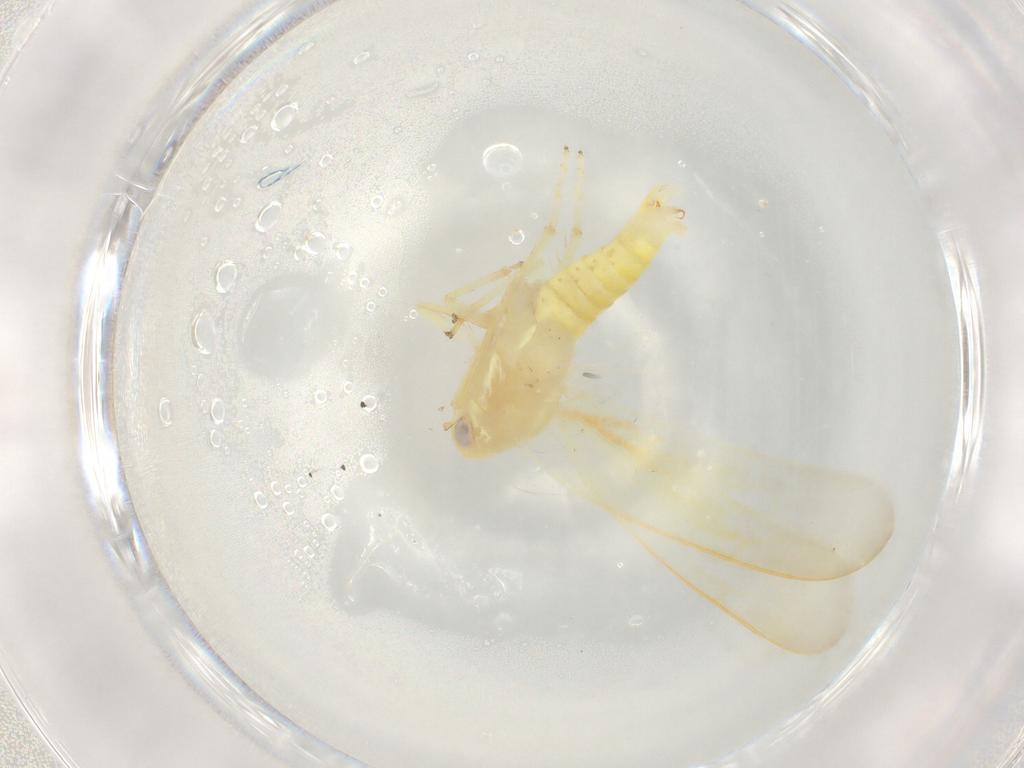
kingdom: Animalia
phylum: Arthropoda
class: Insecta
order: Hemiptera
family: Cicadellidae
